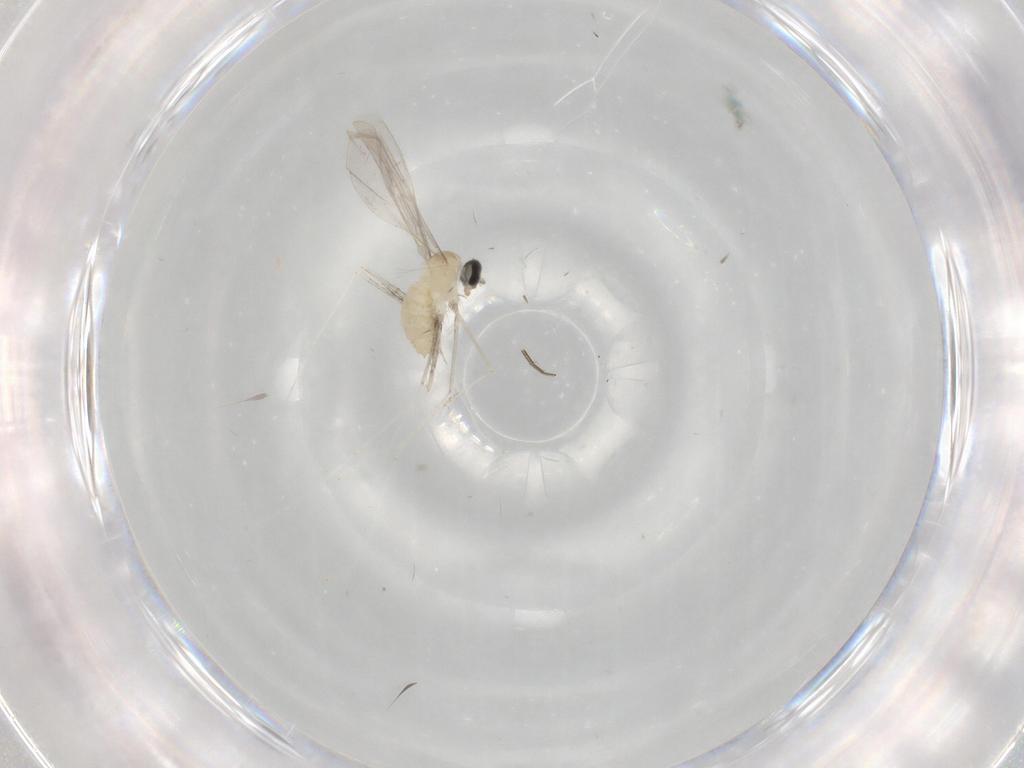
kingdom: Animalia
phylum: Arthropoda
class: Insecta
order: Diptera
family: Cecidomyiidae
